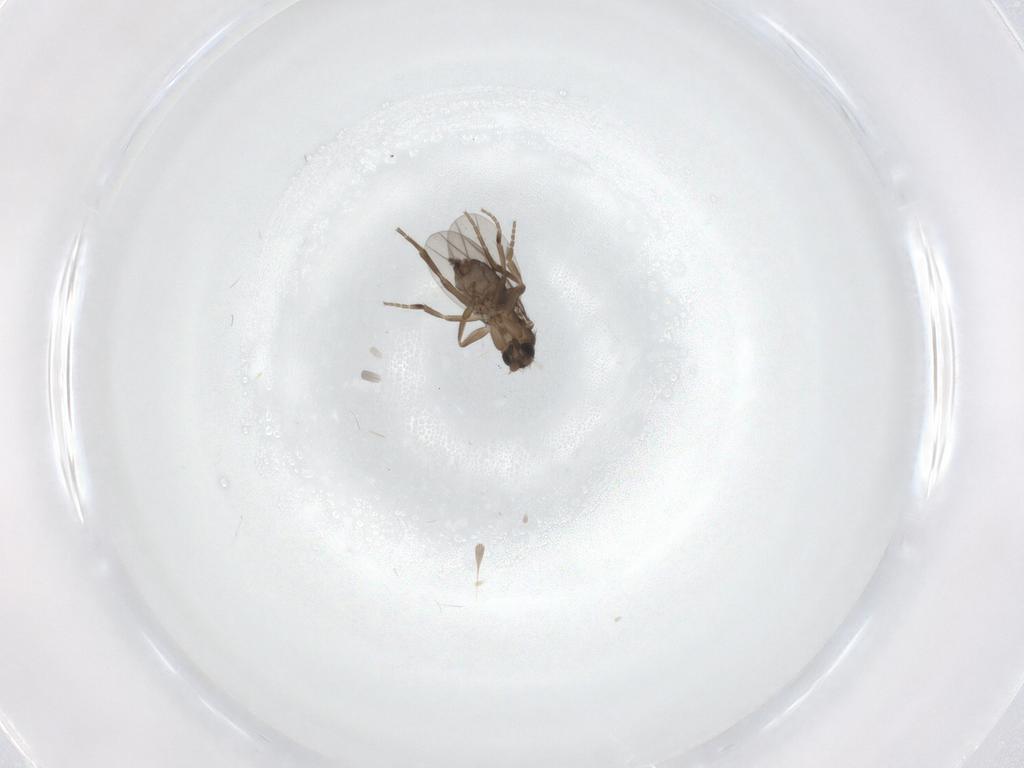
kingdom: Animalia
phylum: Arthropoda
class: Insecta
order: Diptera
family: Phoridae
